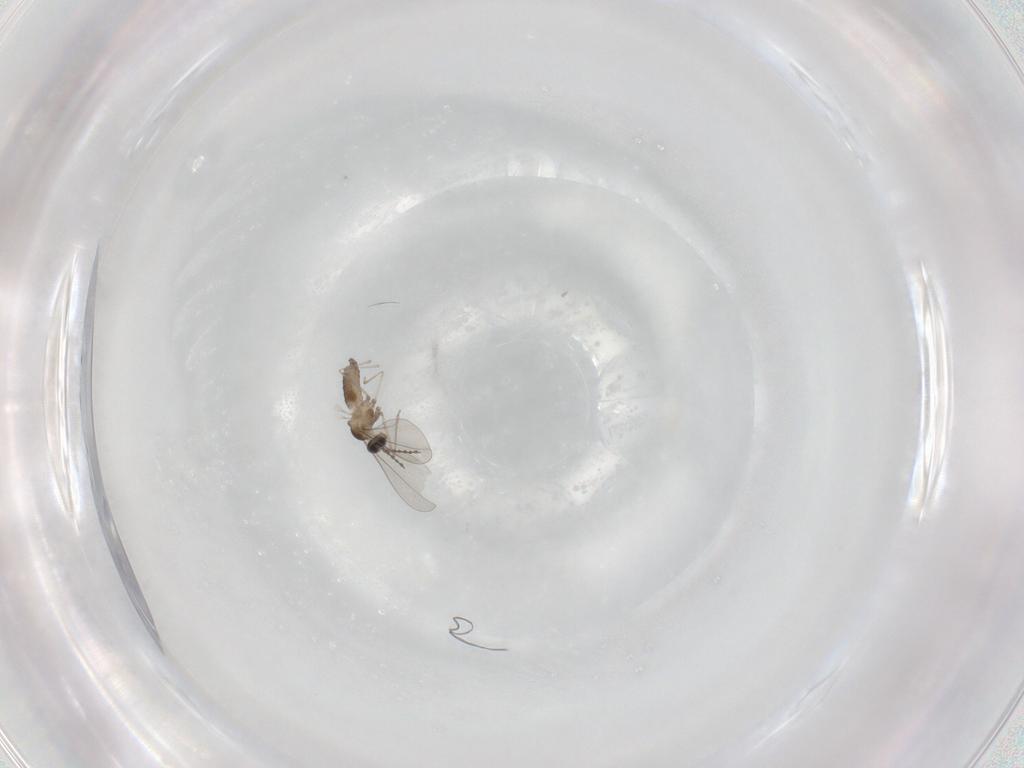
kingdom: Animalia
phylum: Arthropoda
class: Insecta
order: Diptera
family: Cecidomyiidae
